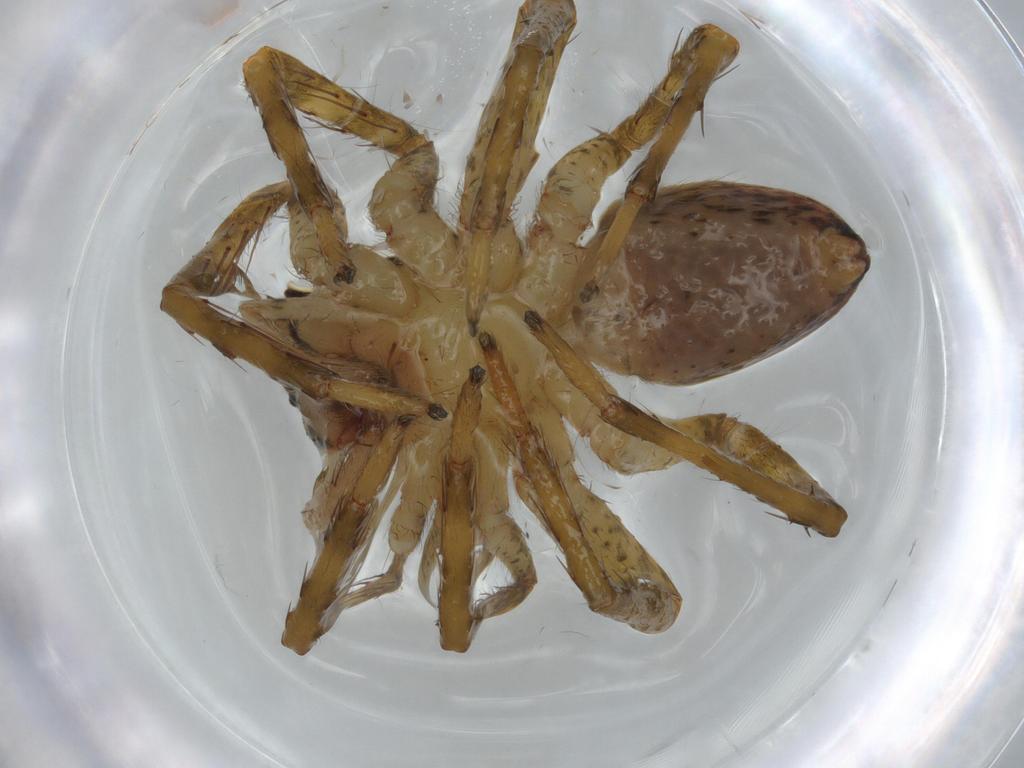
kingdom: Animalia
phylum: Arthropoda
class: Arachnida
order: Araneae
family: Ctenidae
